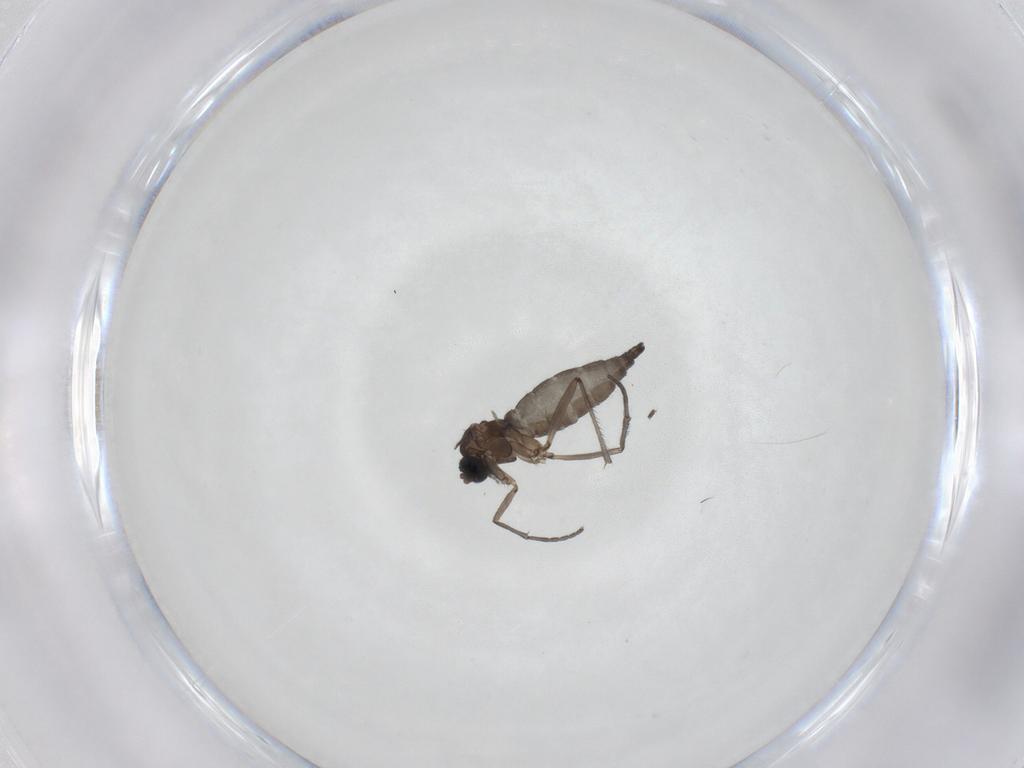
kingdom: Animalia
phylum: Arthropoda
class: Insecta
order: Diptera
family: Sciaridae
